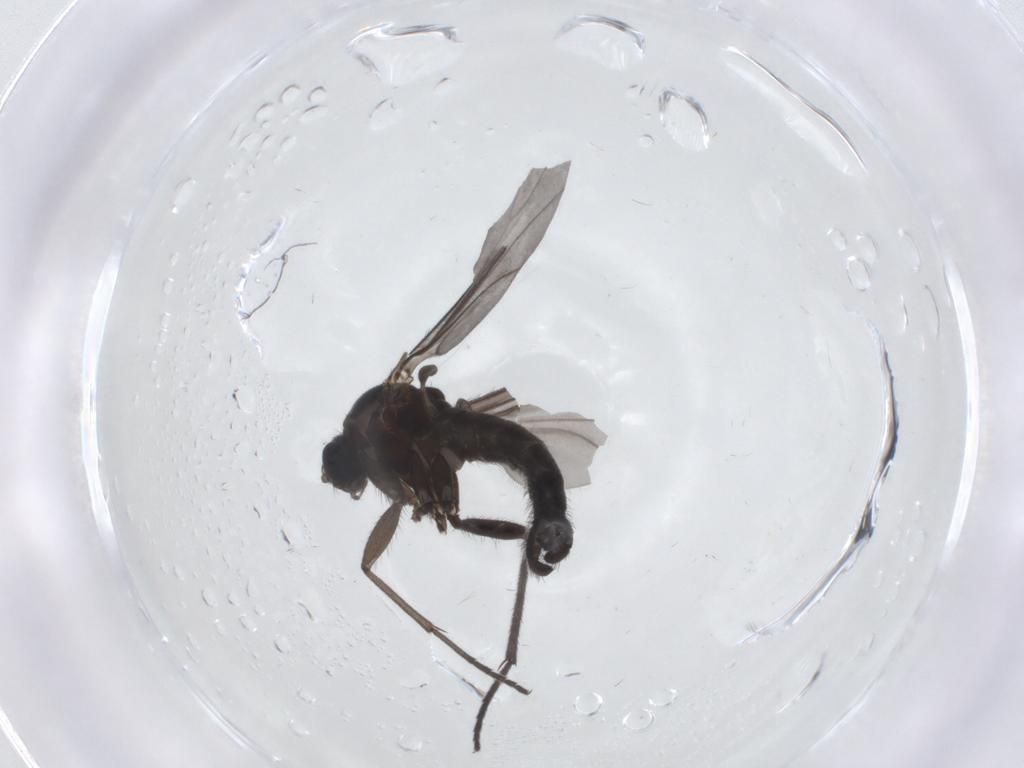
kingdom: Animalia
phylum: Arthropoda
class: Insecta
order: Diptera
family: Sciaridae
